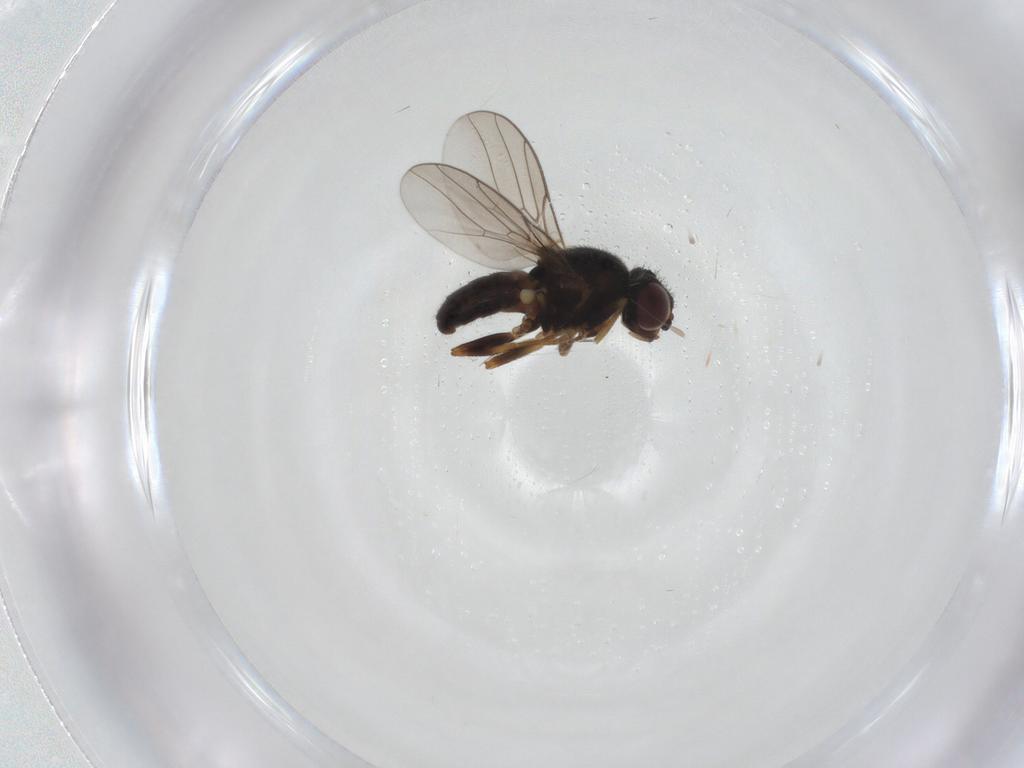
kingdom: Animalia
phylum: Arthropoda
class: Insecta
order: Diptera
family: Chloropidae
